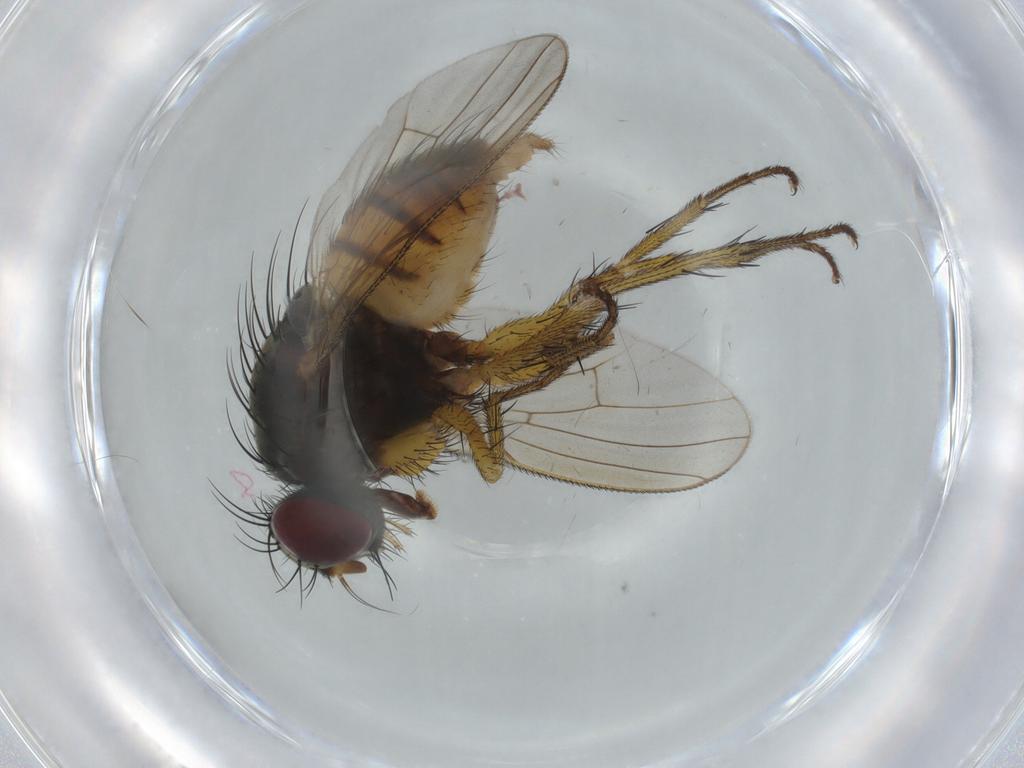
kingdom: Animalia
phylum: Arthropoda
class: Insecta
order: Diptera
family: Muscidae
